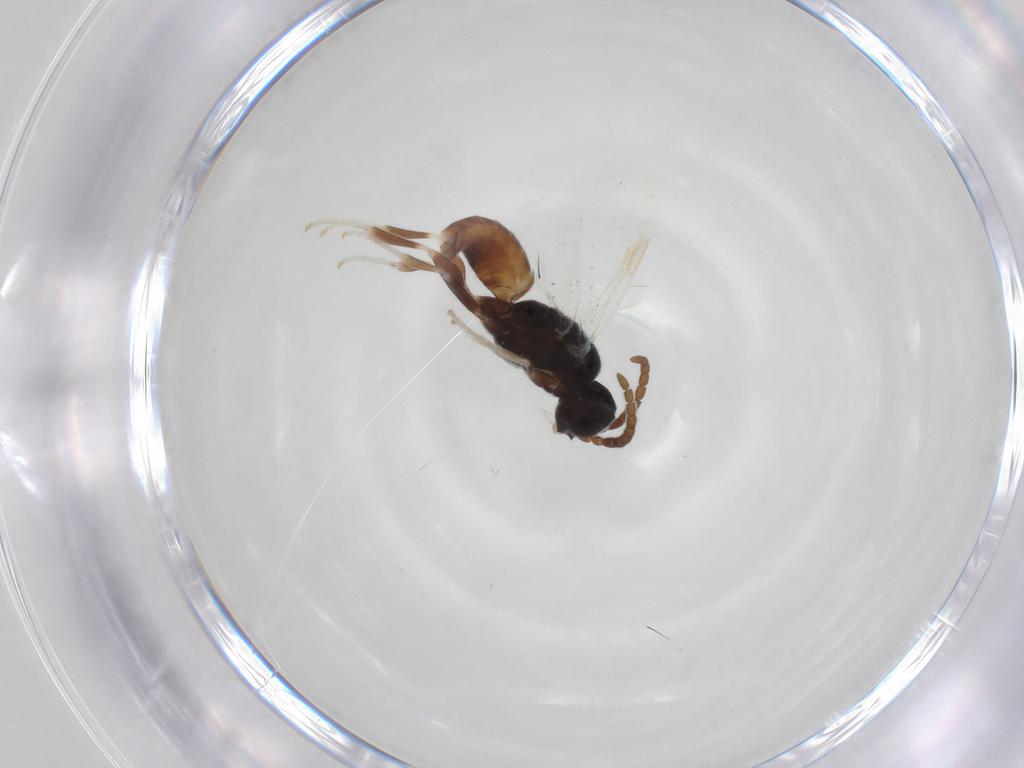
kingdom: Animalia
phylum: Arthropoda
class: Insecta
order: Hymenoptera
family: Dryinidae
